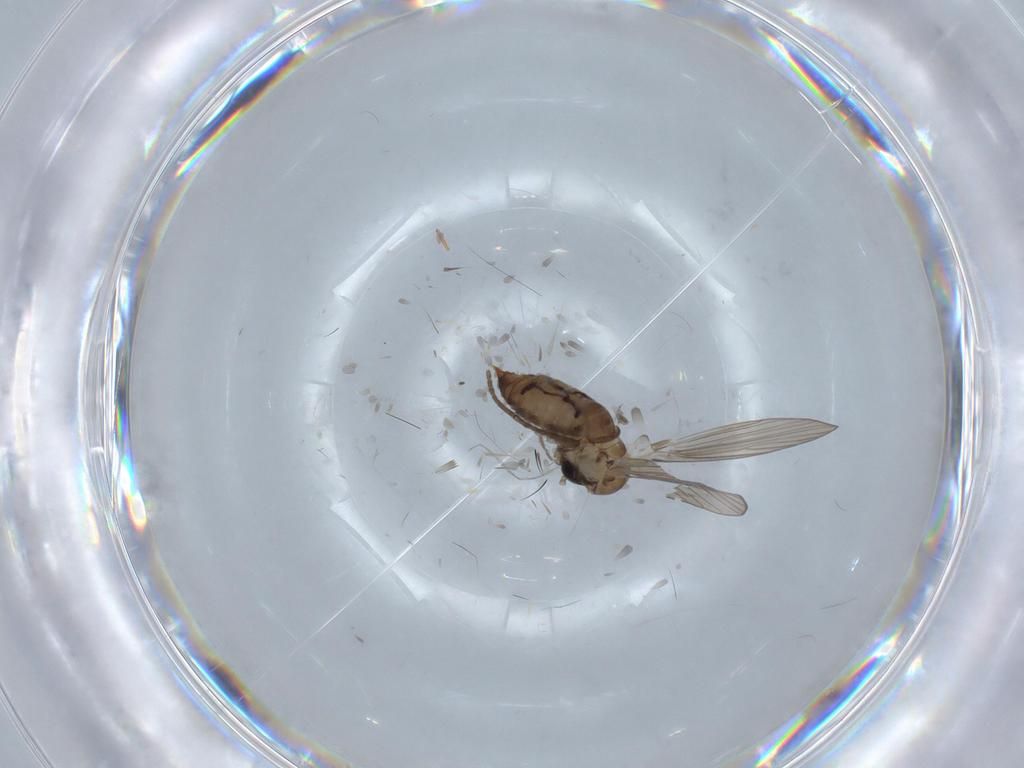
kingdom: Animalia
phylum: Arthropoda
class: Insecta
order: Diptera
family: Psychodidae
